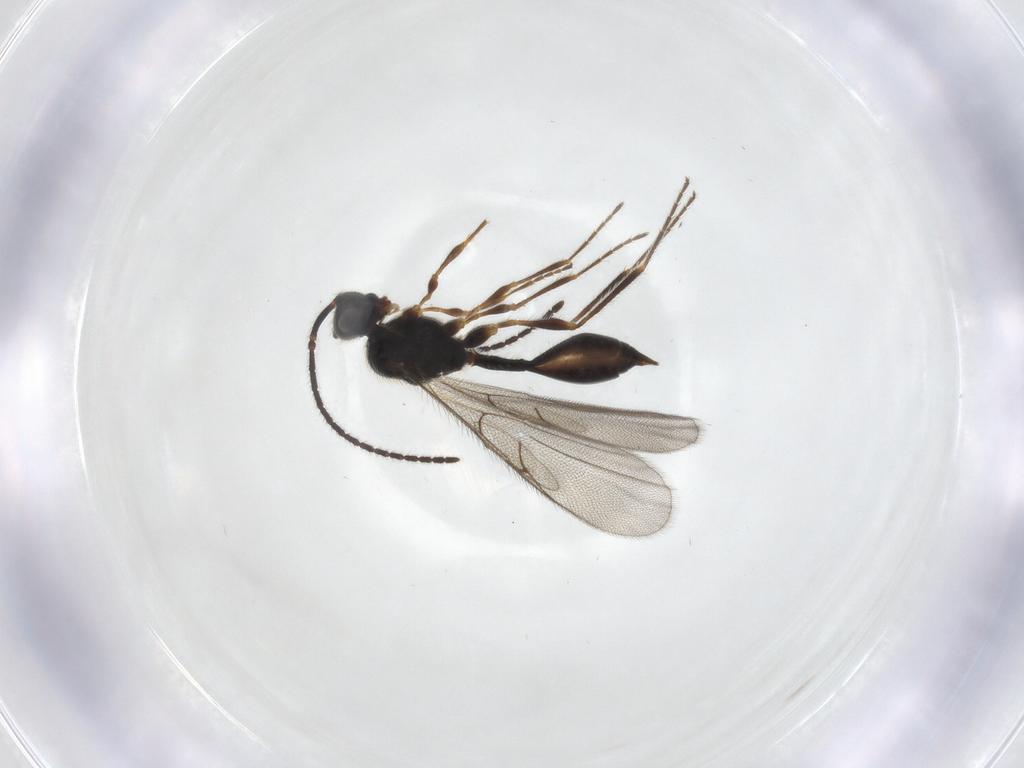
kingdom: Animalia
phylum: Arthropoda
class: Insecta
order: Hymenoptera
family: Diapriidae
